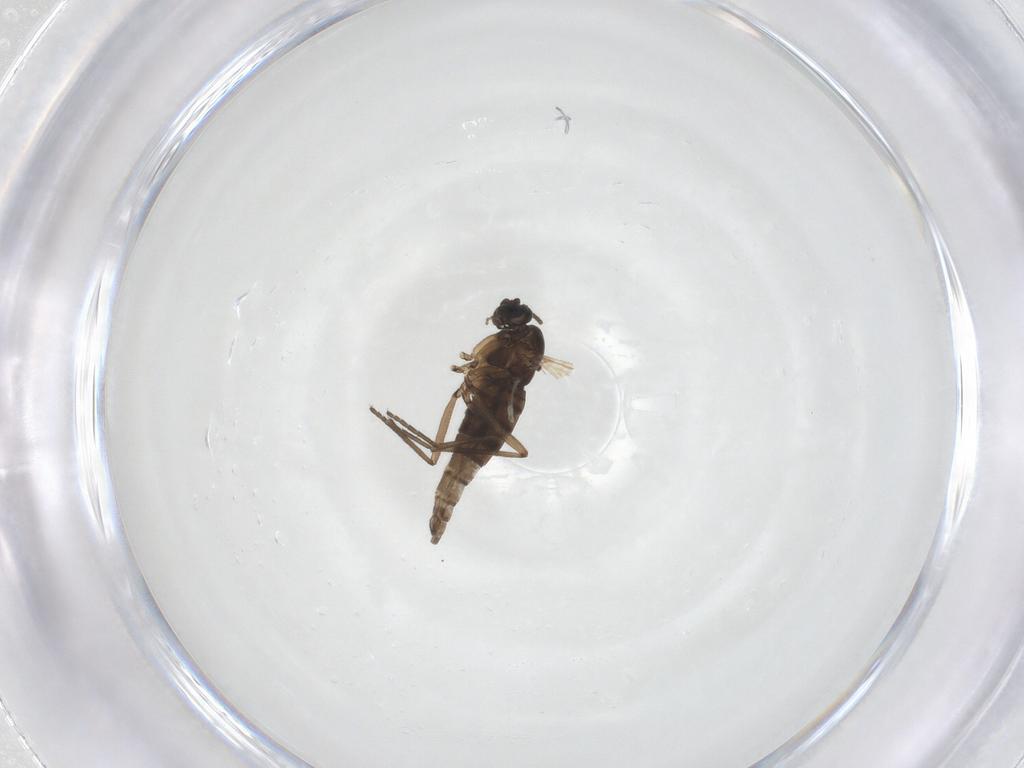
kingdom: Animalia
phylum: Arthropoda
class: Insecta
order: Diptera
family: Sciaridae
